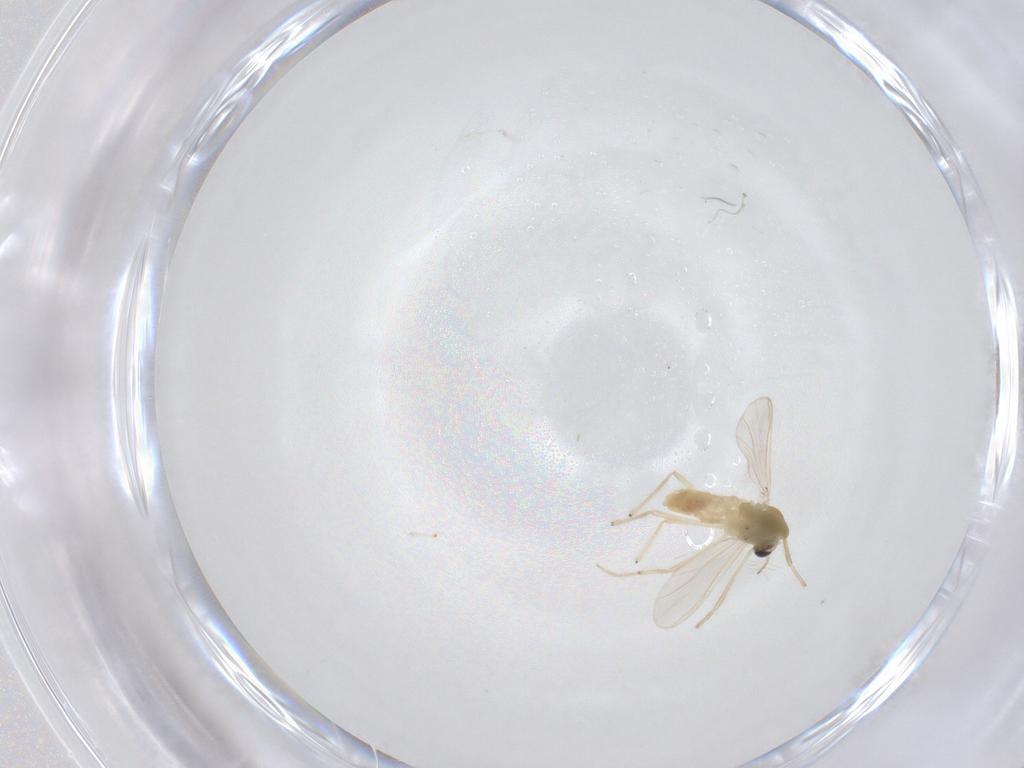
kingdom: Animalia
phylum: Arthropoda
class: Insecta
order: Diptera
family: Chironomidae
